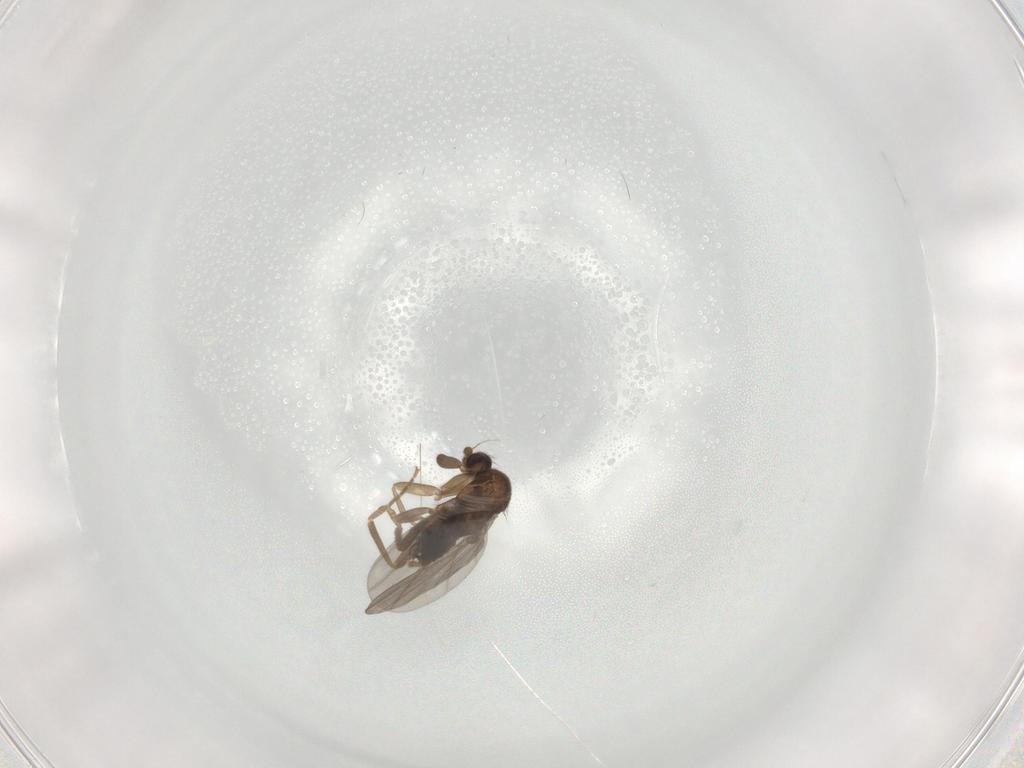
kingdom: Animalia
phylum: Arthropoda
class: Insecta
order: Diptera
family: Phoridae
